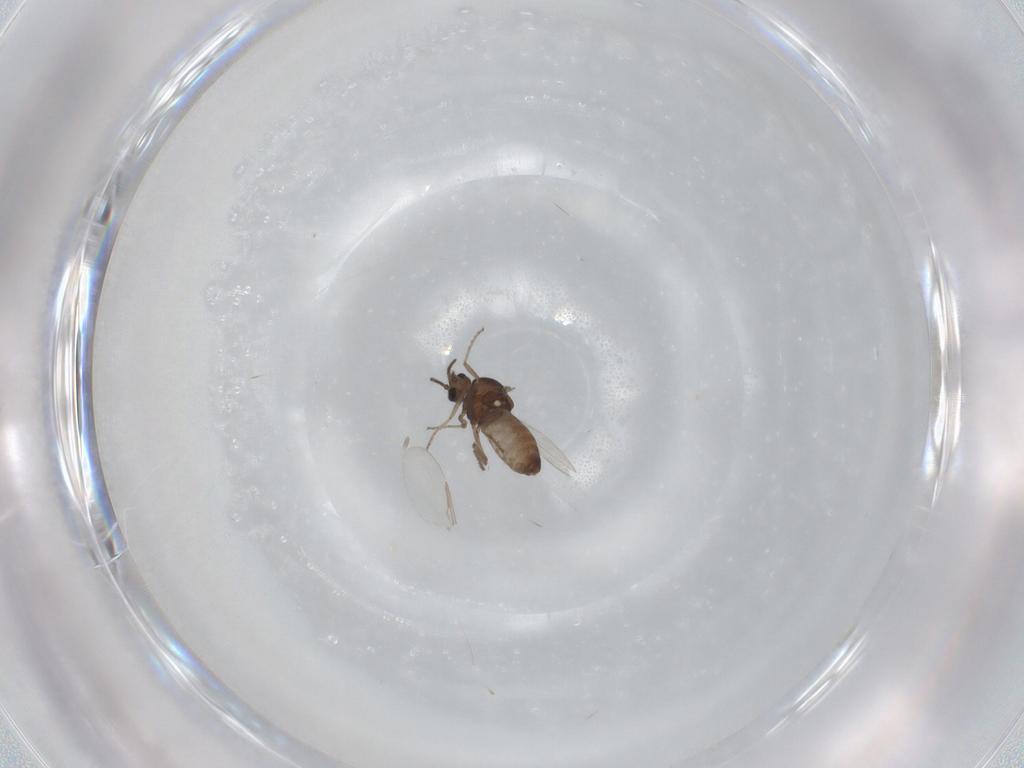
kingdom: Animalia
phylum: Arthropoda
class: Insecta
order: Diptera
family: Ceratopogonidae
